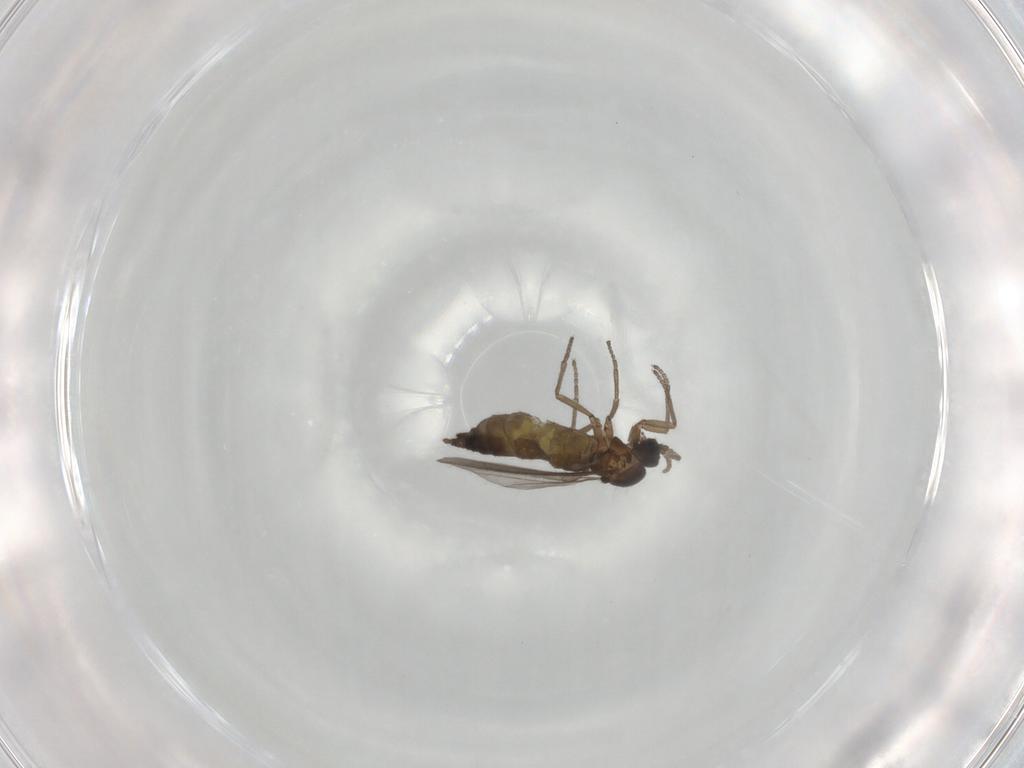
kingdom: Animalia
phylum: Arthropoda
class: Insecta
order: Diptera
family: Sciaridae
